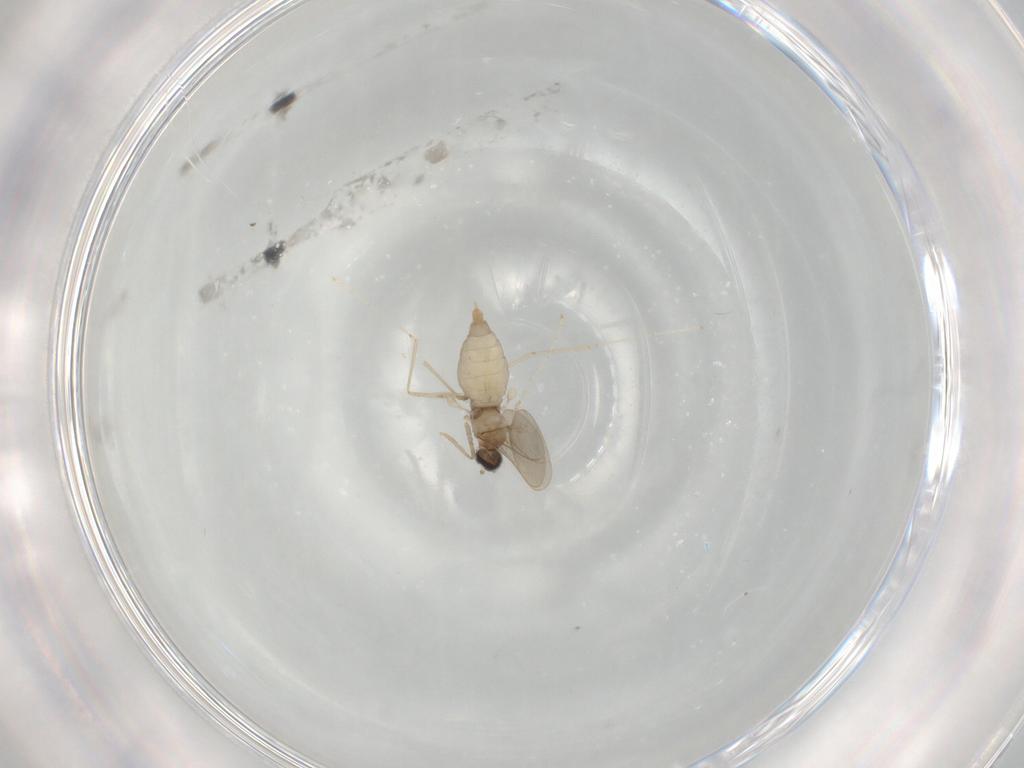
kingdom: Animalia
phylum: Arthropoda
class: Insecta
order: Diptera
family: Cecidomyiidae
